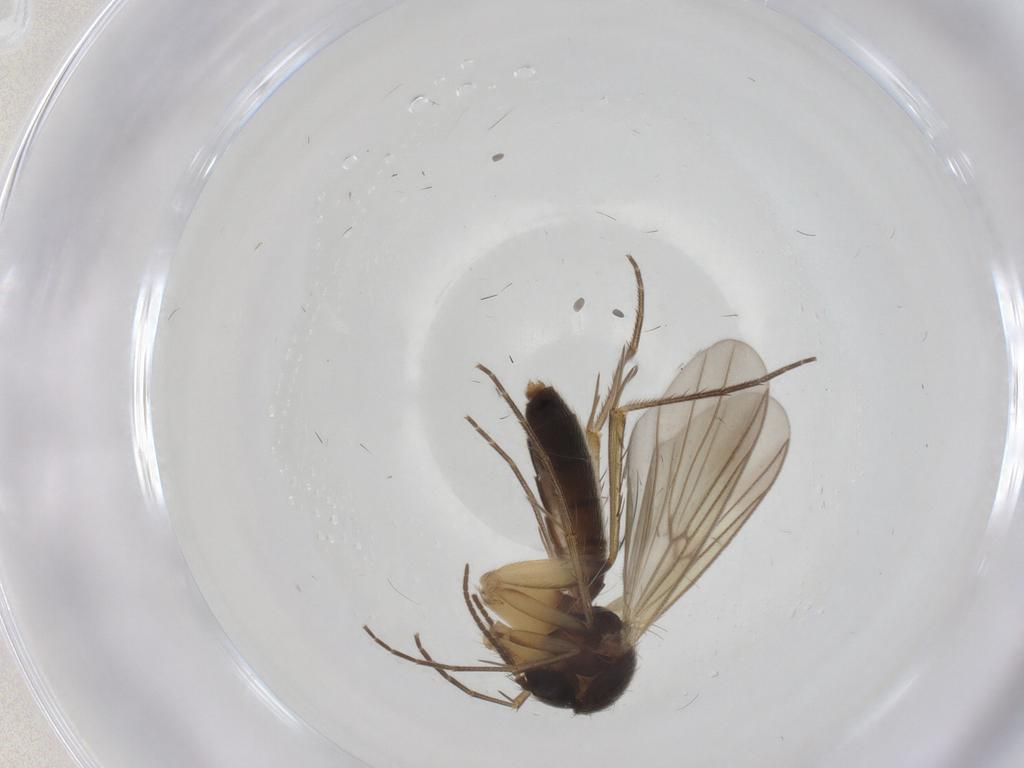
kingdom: Animalia
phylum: Arthropoda
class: Insecta
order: Diptera
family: Mycetophilidae
